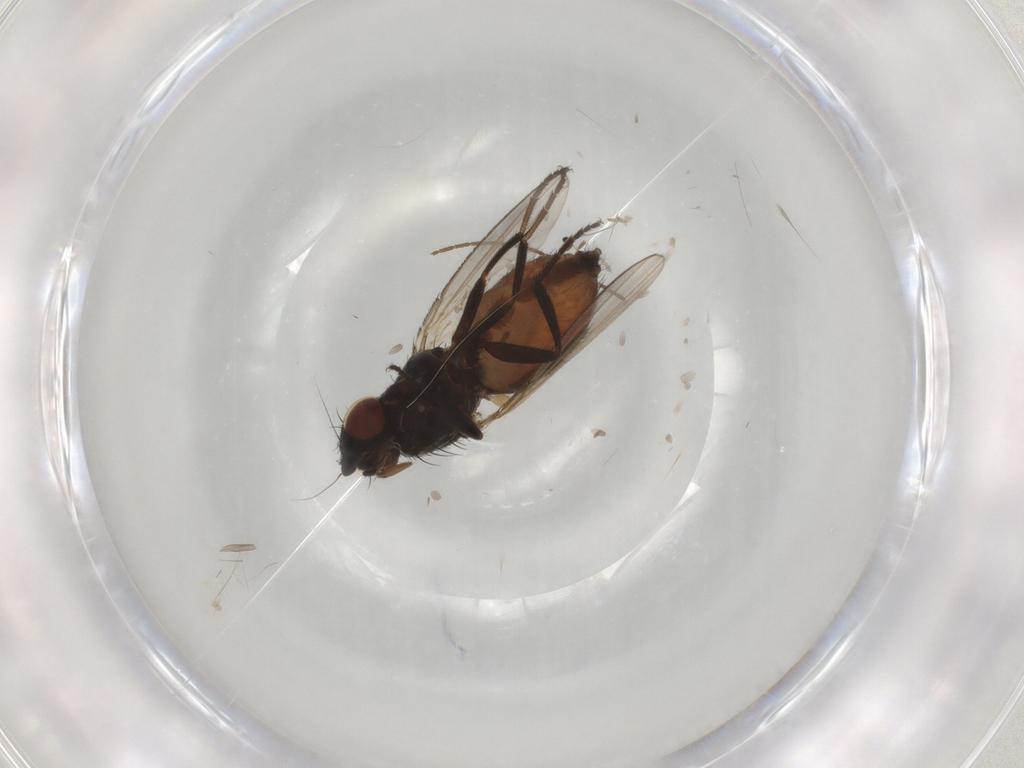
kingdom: Animalia
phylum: Arthropoda
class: Insecta
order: Diptera
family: Milichiidae
